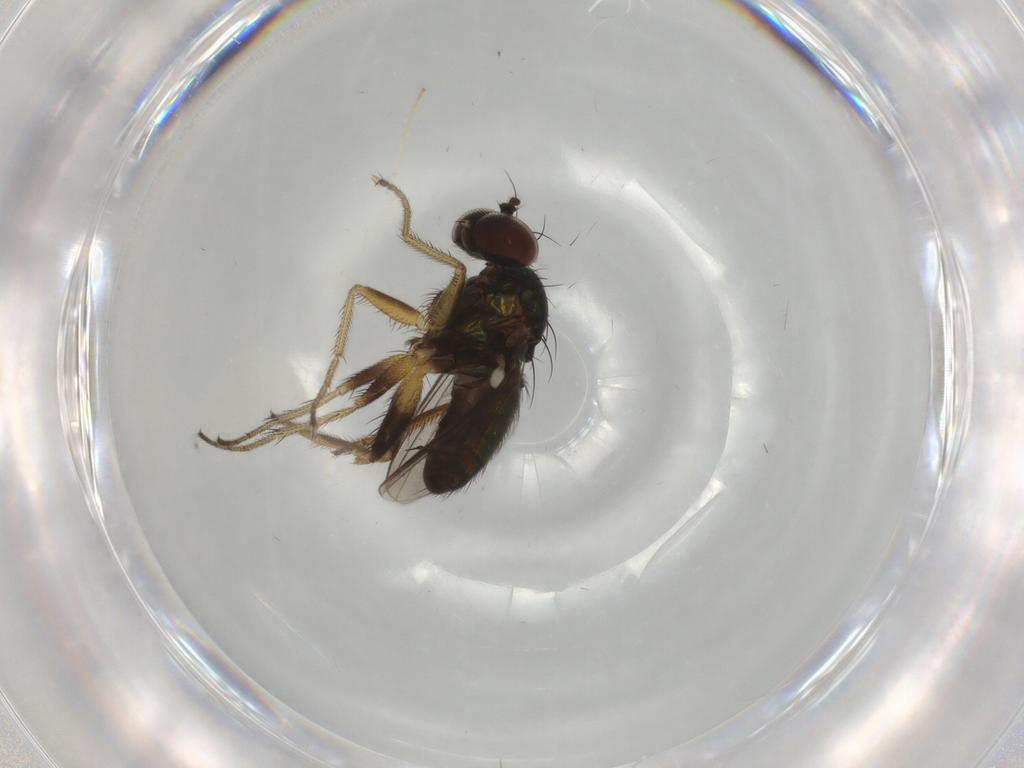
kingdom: Animalia
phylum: Arthropoda
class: Insecta
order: Diptera
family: Dolichopodidae
